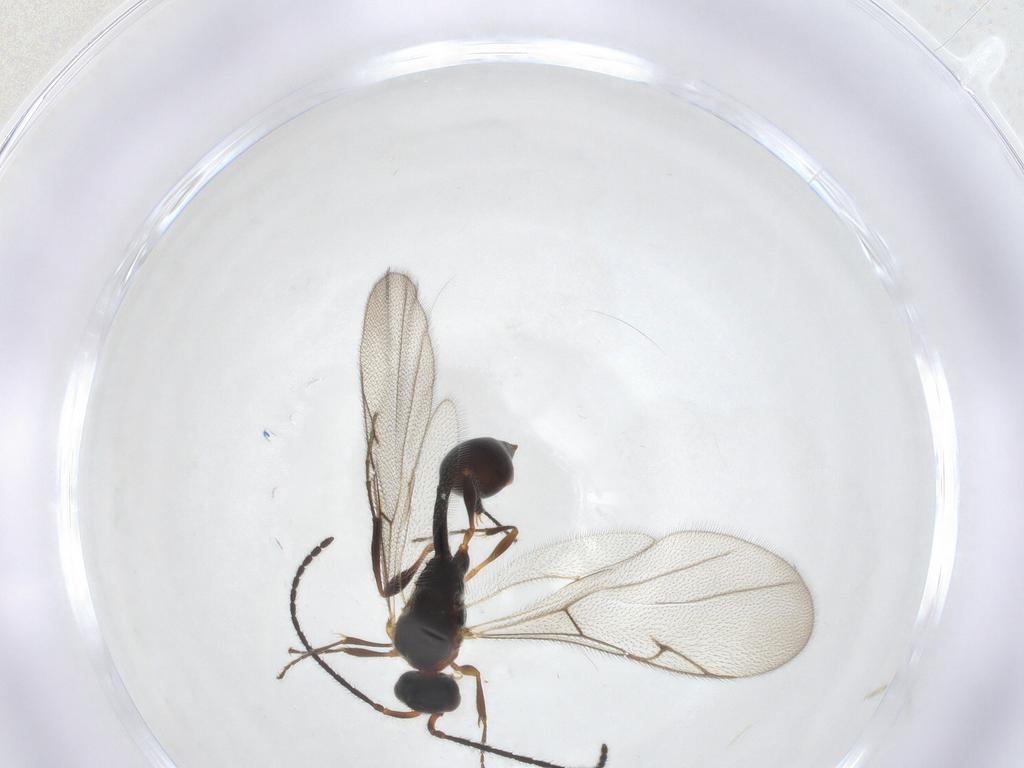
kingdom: Animalia
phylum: Arthropoda
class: Insecta
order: Hymenoptera
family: Diapriidae
